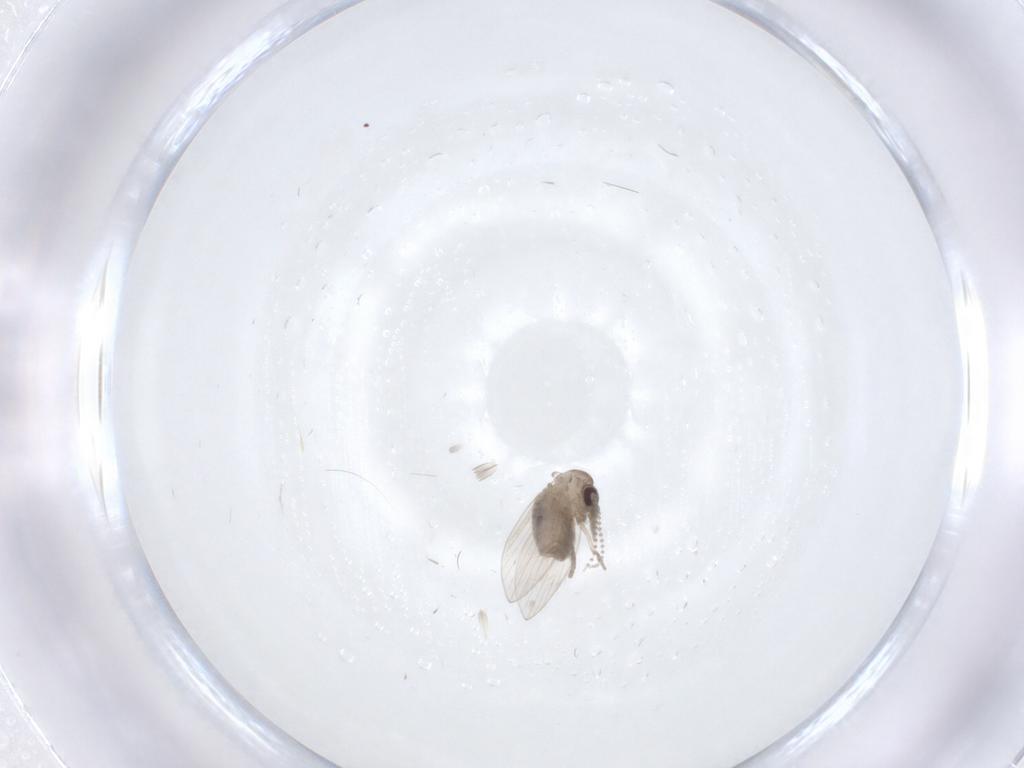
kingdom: Animalia
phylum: Arthropoda
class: Insecta
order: Diptera
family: Psychodidae
